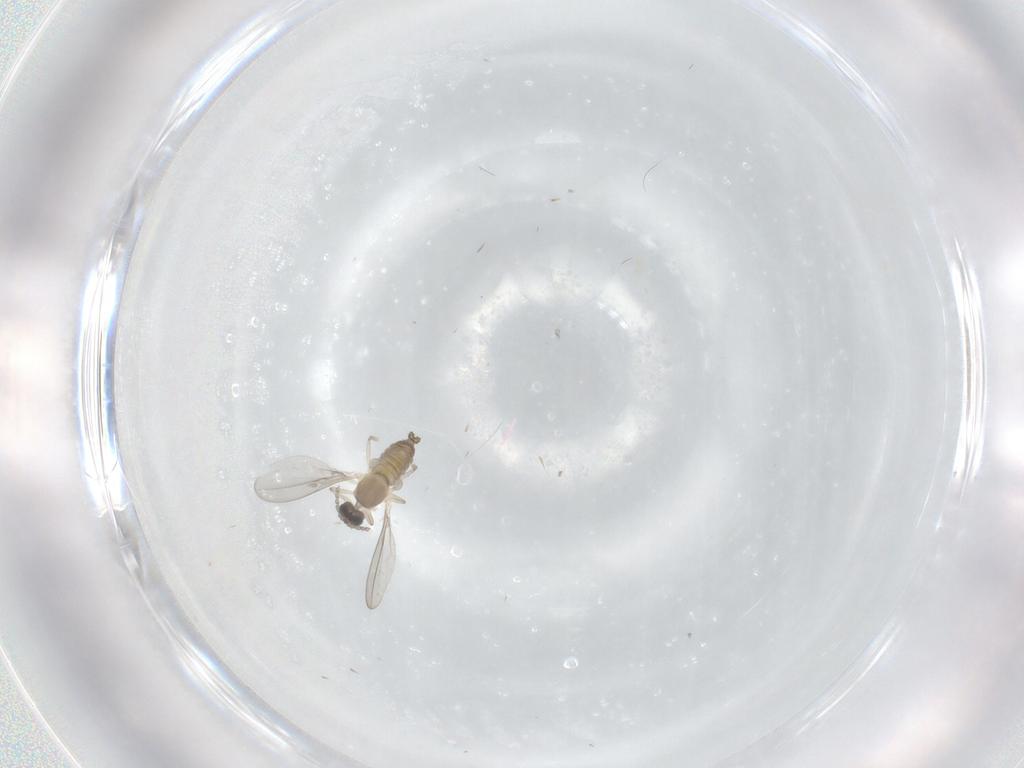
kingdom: Animalia
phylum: Arthropoda
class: Insecta
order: Diptera
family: Cecidomyiidae
